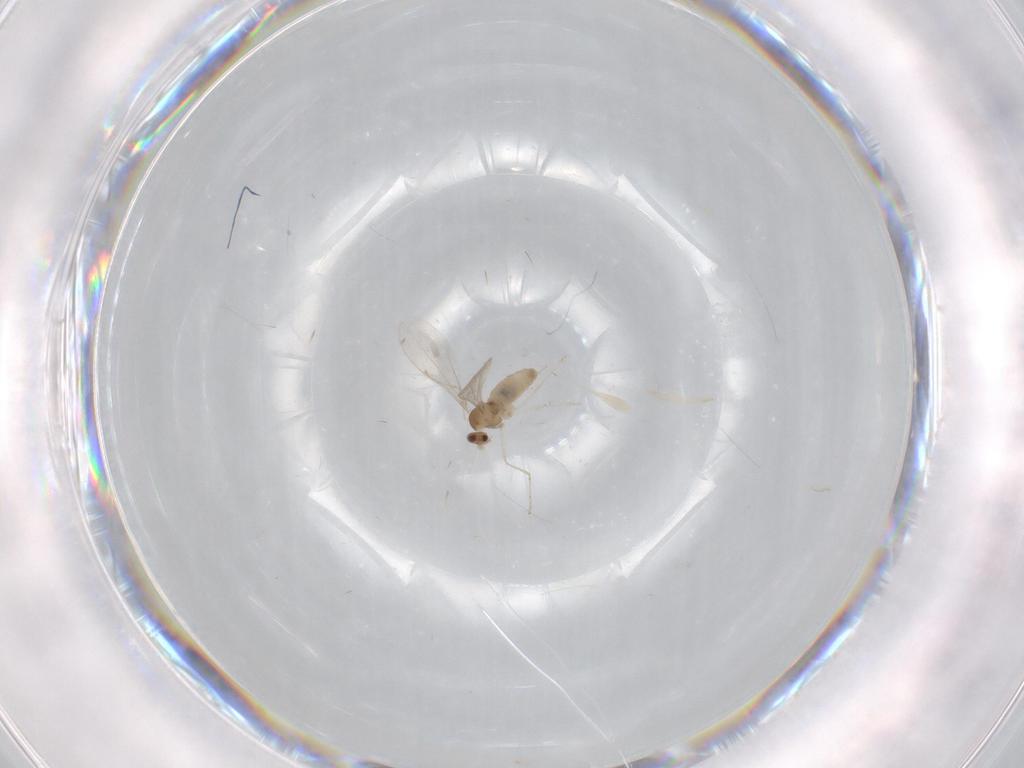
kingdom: Animalia
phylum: Arthropoda
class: Insecta
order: Diptera
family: Cecidomyiidae
